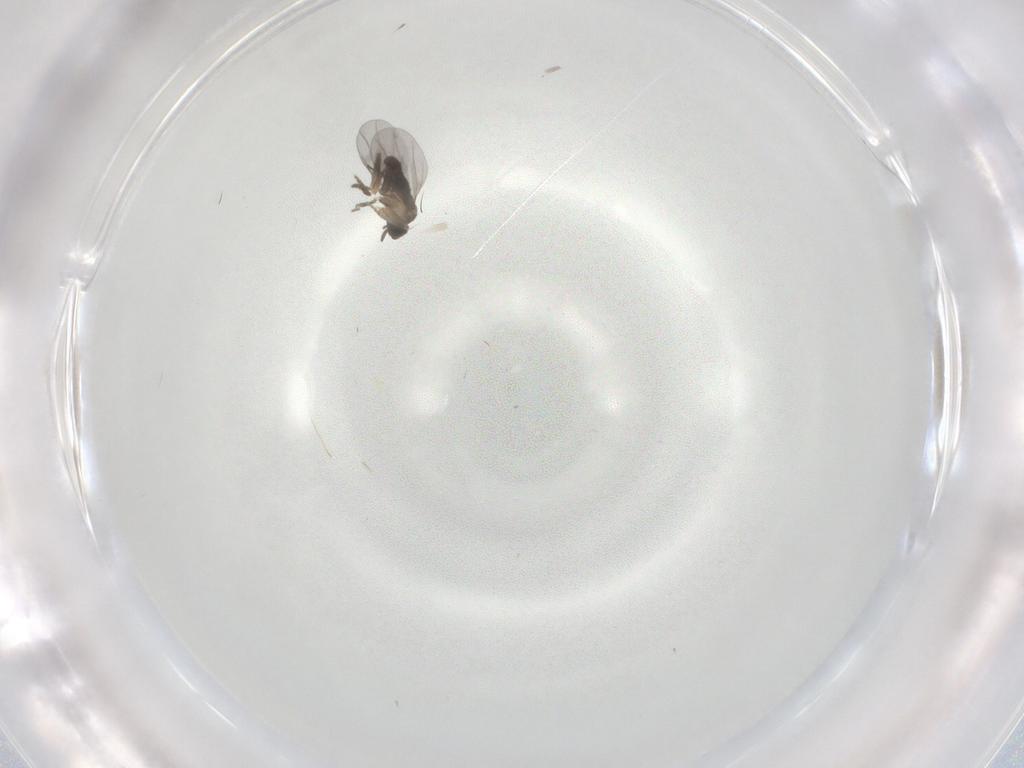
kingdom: Animalia
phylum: Arthropoda
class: Insecta
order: Diptera
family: Ceratopogonidae
